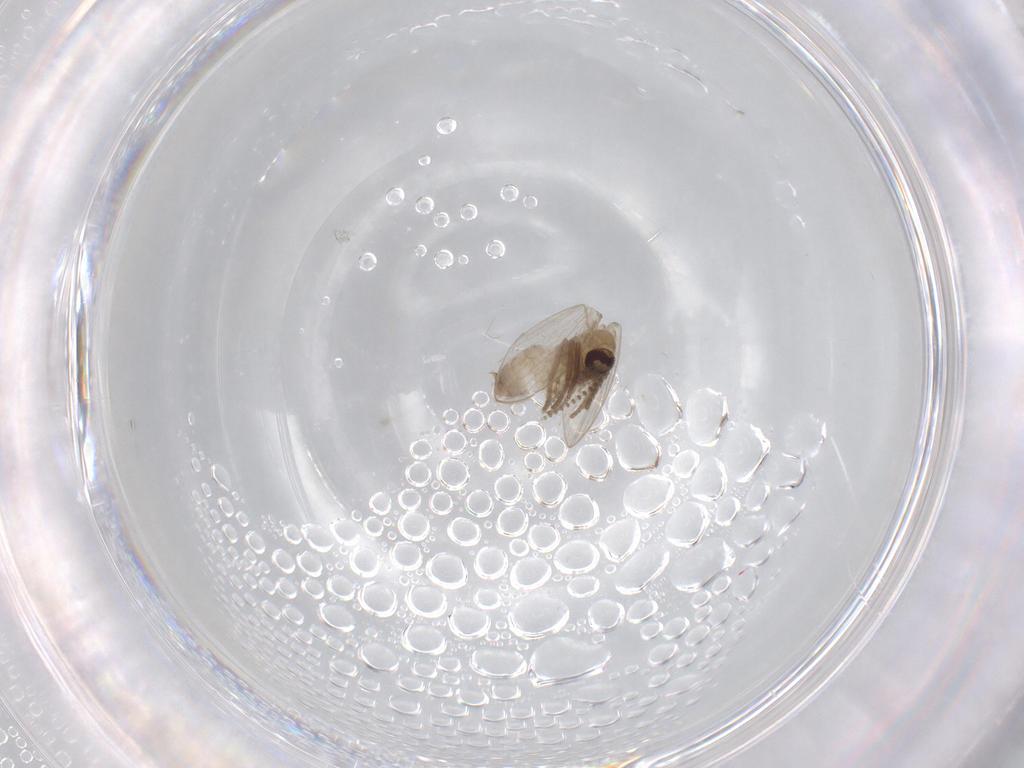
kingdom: Animalia
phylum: Arthropoda
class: Insecta
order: Diptera
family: Psychodidae
